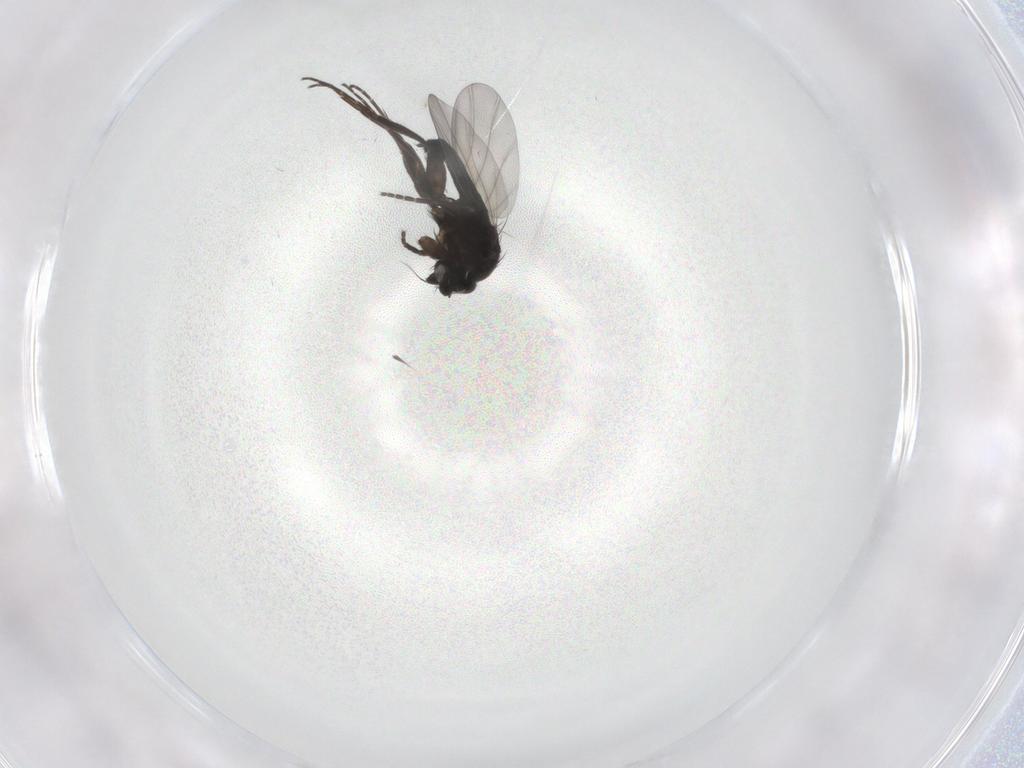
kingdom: Animalia
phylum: Arthropoda
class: Insecta
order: Diptera
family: Phoridae
